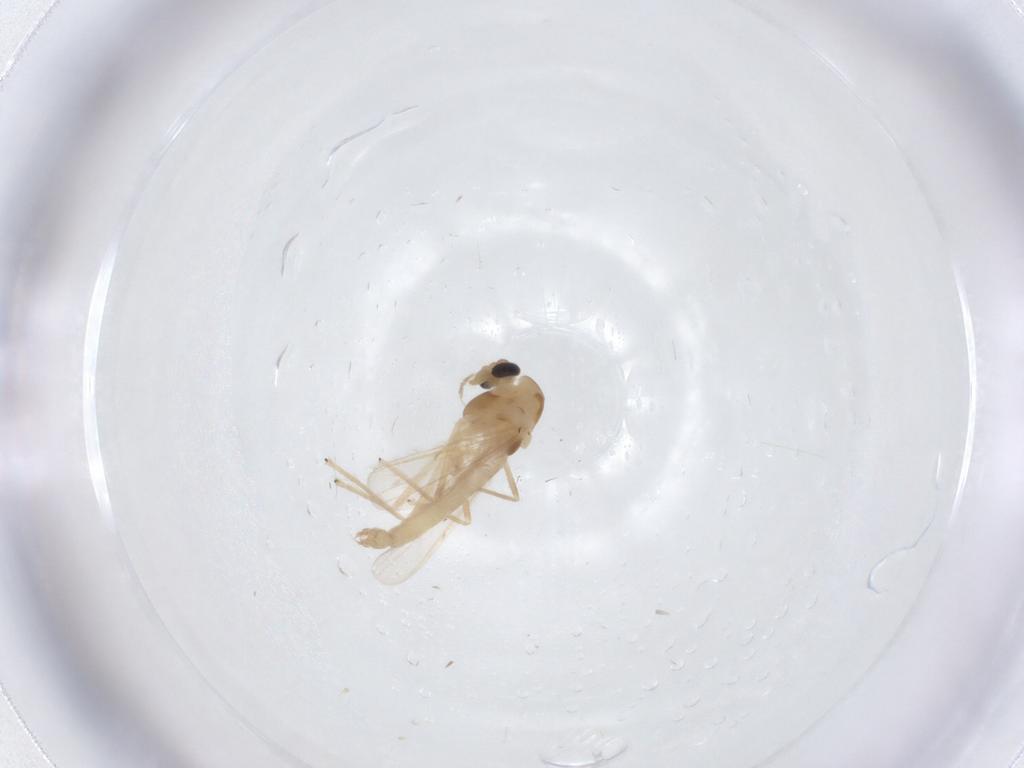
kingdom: Animalia
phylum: Arthropoda
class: Insecta
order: Diptera
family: Chironomidae
